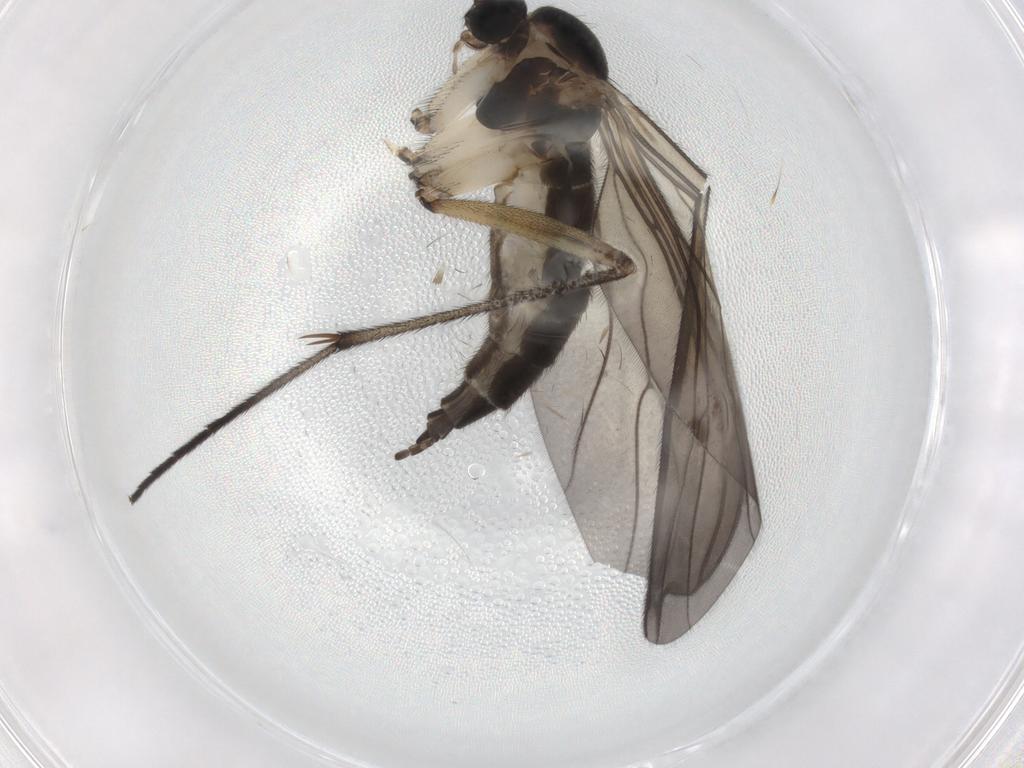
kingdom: Animalia
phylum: Arthropoda
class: Insecta
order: Diptera
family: Sciaridae
